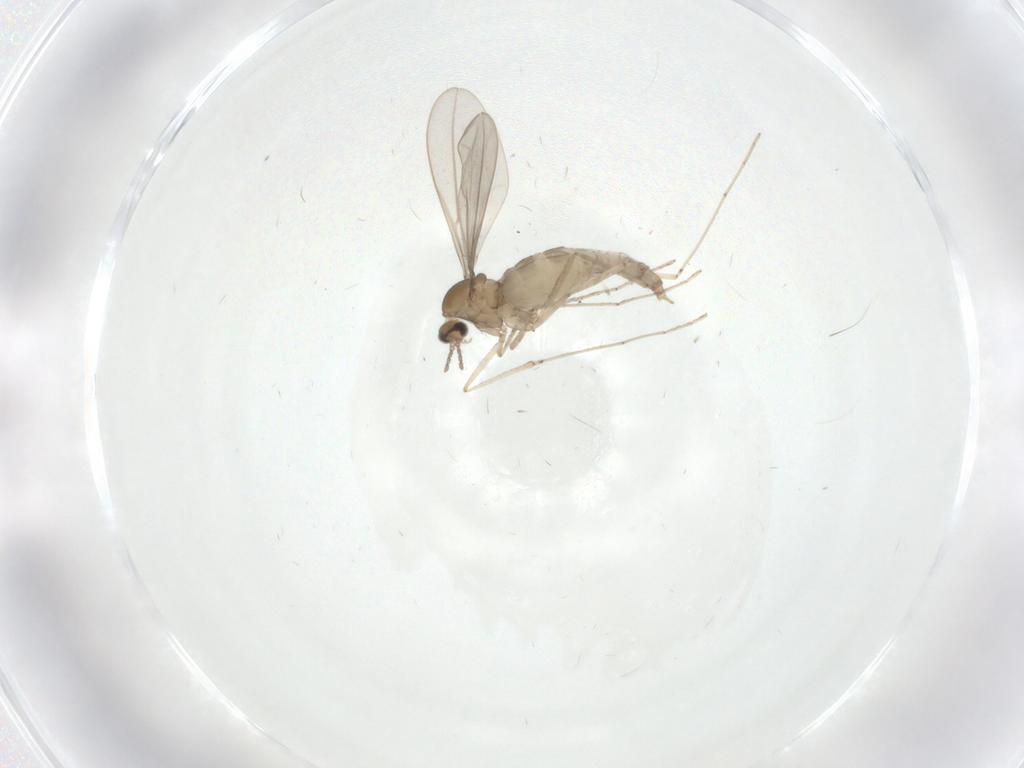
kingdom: Animalia
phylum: Arthropoda
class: Insecta
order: Diptera
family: Cecidomyiidae
